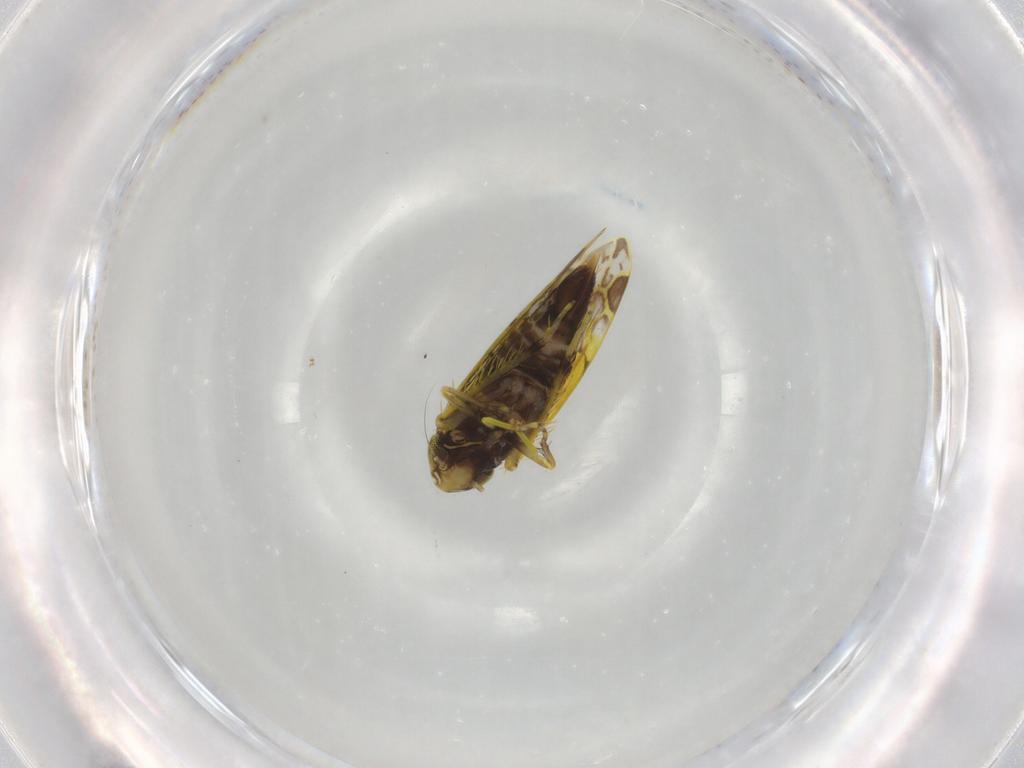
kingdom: Animalia
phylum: Arthropoda
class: Insecta
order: Hemiptera
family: Cicadellidae
